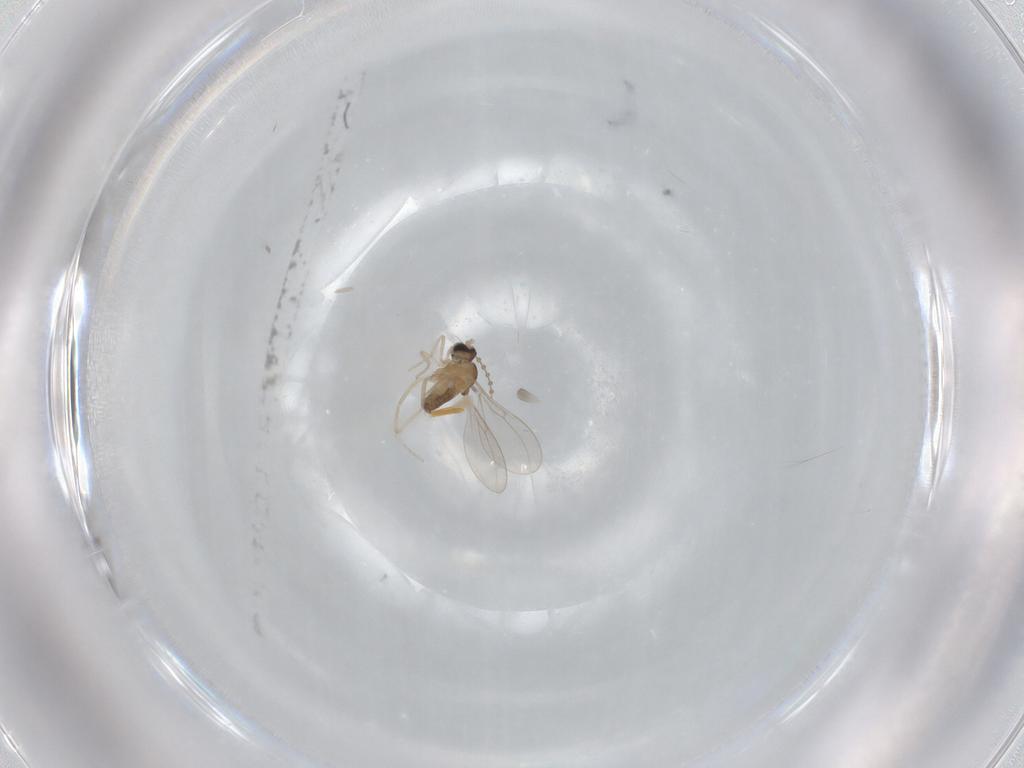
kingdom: Animalia
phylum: Arthropoda
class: Insecta
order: Diptera
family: Cecidomyiidae
